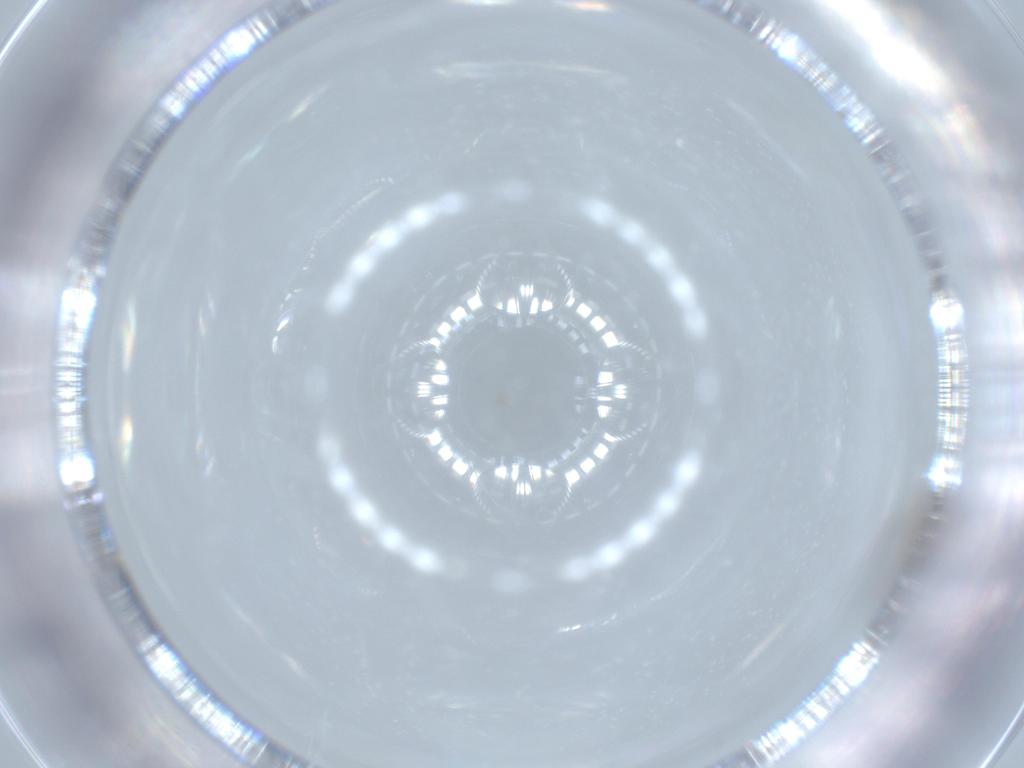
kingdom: Animalia
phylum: Arthropoda
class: Insecta
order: Diptera
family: Cecidomyiidae
